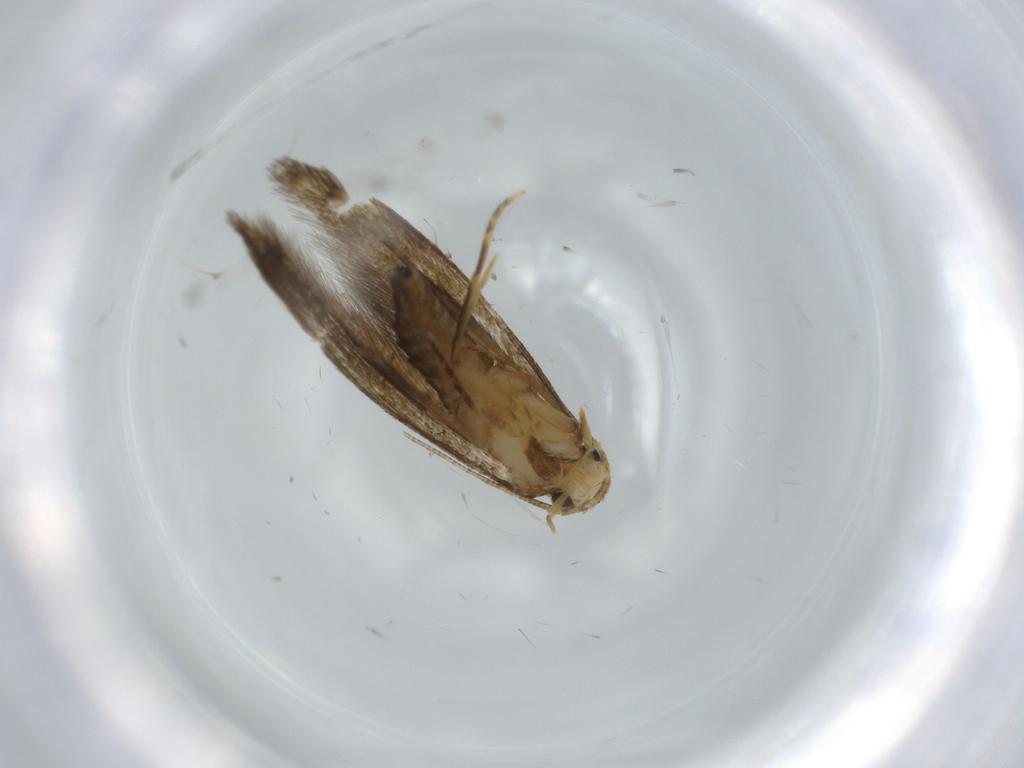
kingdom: Animalia
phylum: Arthropoda
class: Insecta
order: Lepidoptera
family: Tineidae
